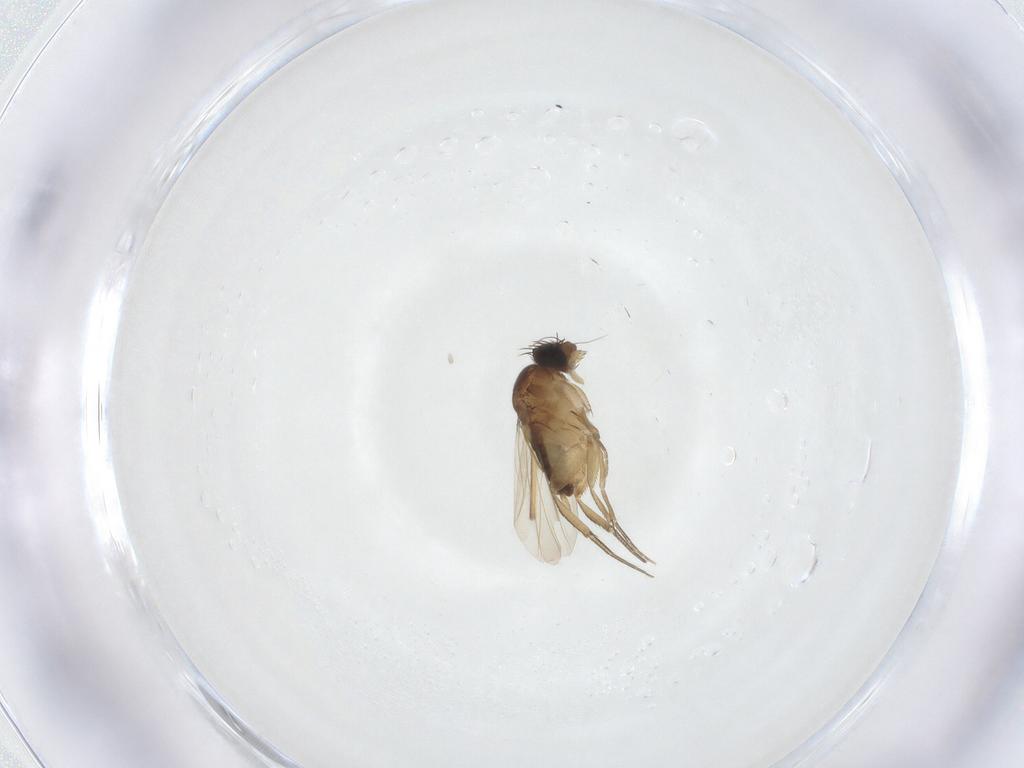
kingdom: Animalia
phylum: Arthropoda
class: Insecta
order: Diptera
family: Phoridae
